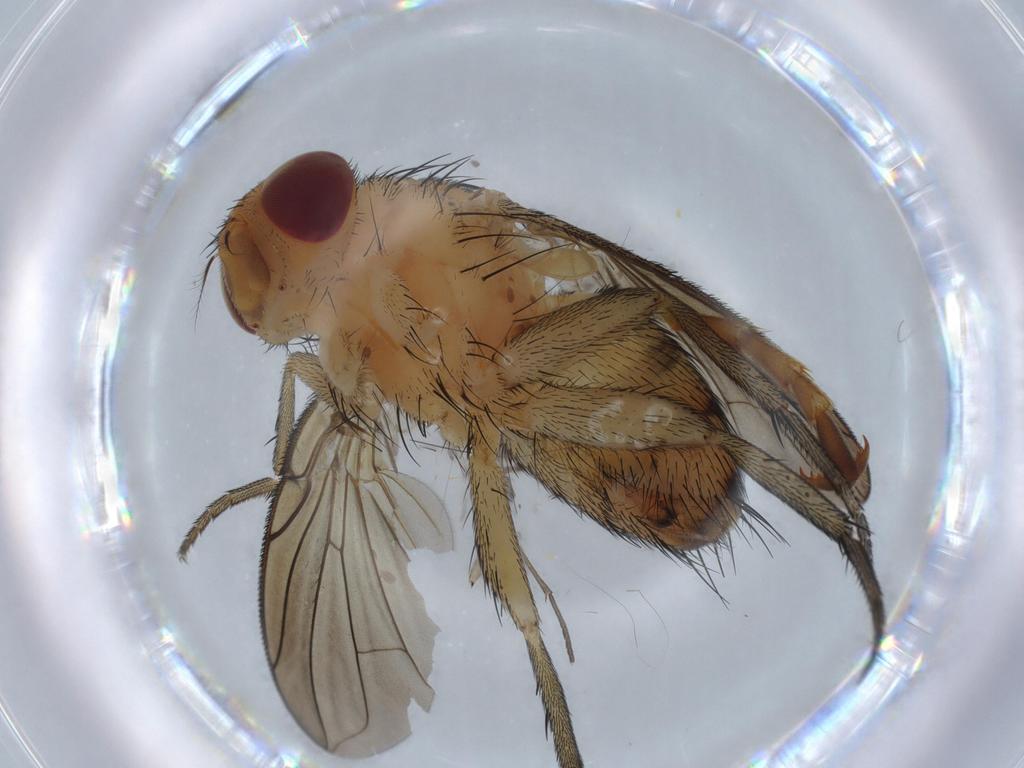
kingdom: Animalia
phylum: Arthropoda
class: Insecta
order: Diptera
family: Calliphoridae
